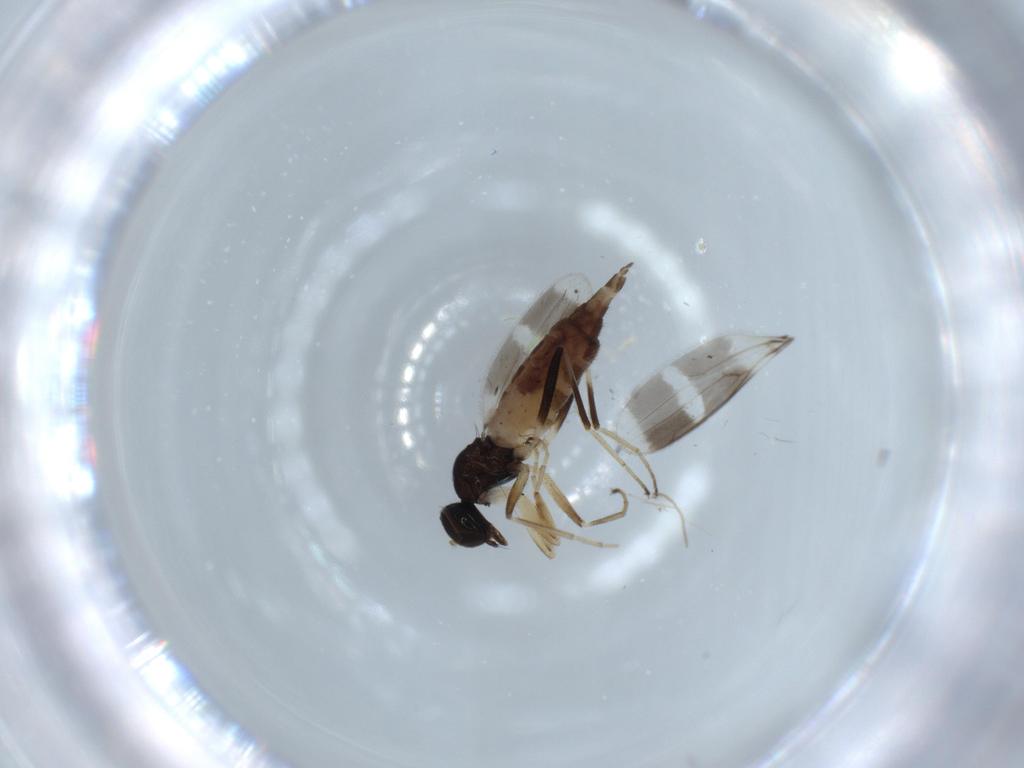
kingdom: Animalia
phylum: Arthropoda
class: Insecta
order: Diptera
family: Hybotidae
